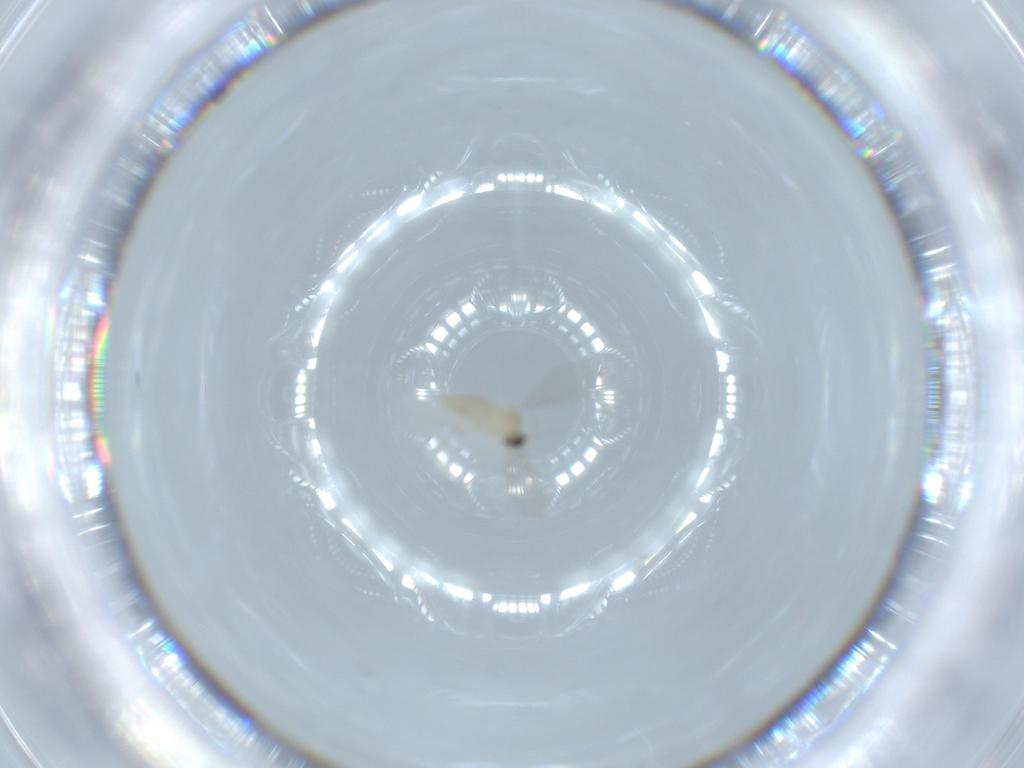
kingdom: Animalia
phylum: Arthropoda
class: Insecta
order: Diptera
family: Cecidomyiidae
